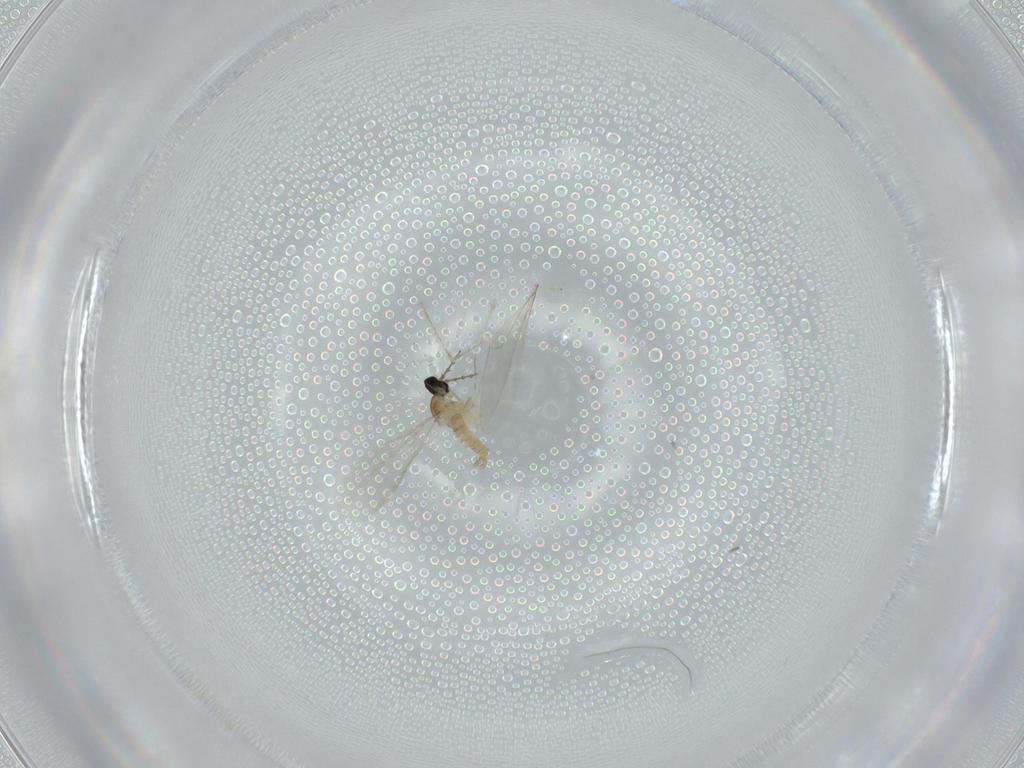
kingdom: Animalia
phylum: Arthropoda
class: Insecta
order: Diptera
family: Cecidomyiidae
